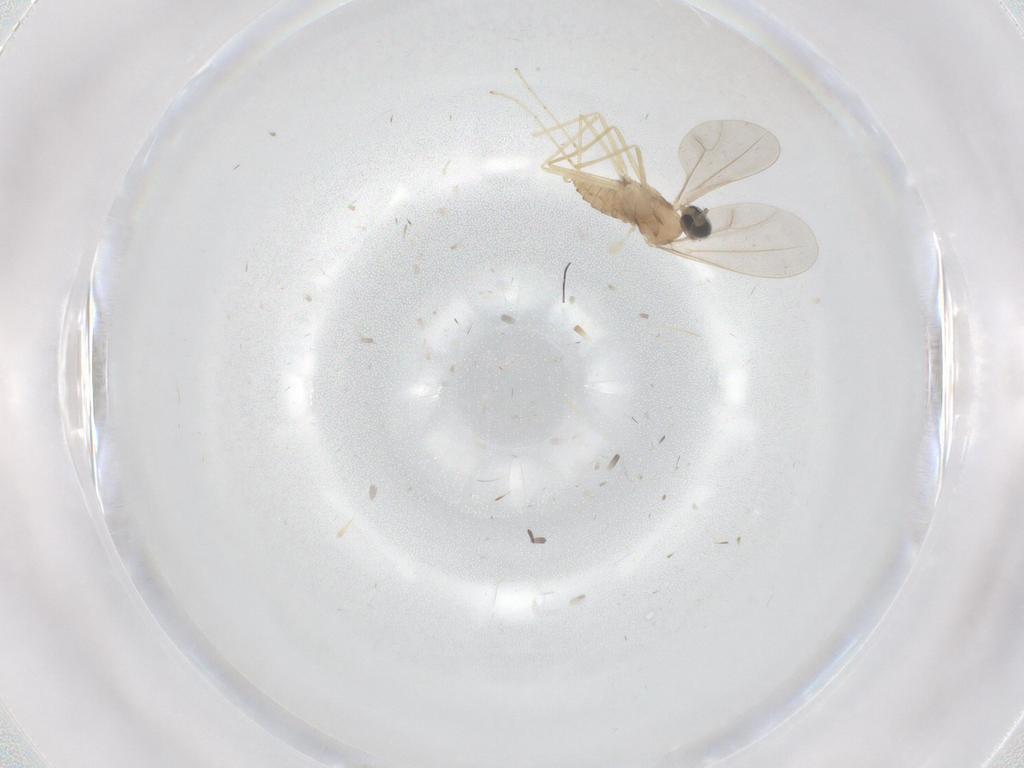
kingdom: Animalia
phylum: Arthropoda
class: Insecta
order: Diptera
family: Cecidomyiidae
